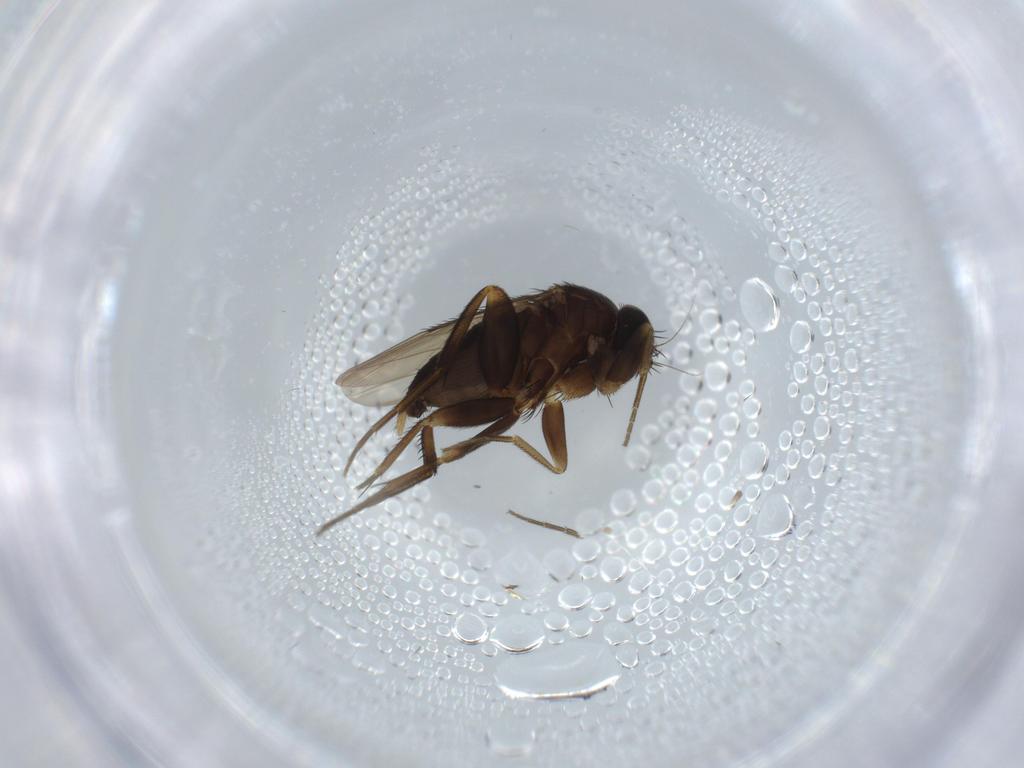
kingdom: Animalia
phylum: Arthropoda
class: Insecta
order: Diptera
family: Phoridae
